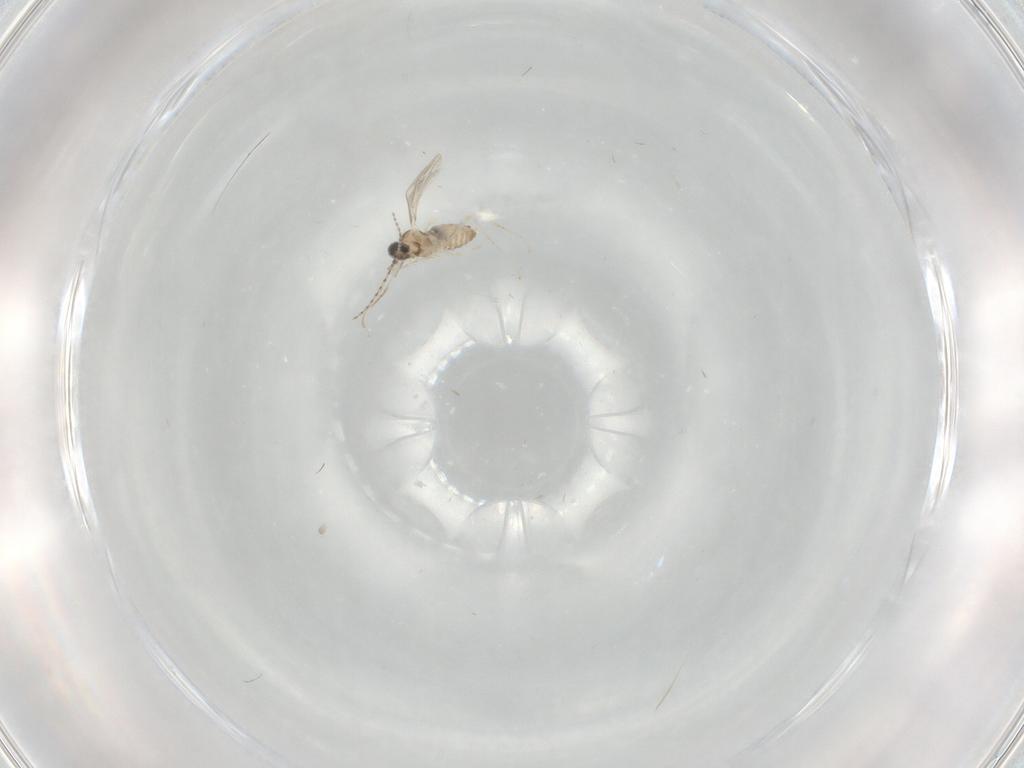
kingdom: Animalia
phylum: Arthropoda
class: Insecta
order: Diptera
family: Cecidomyiidae
